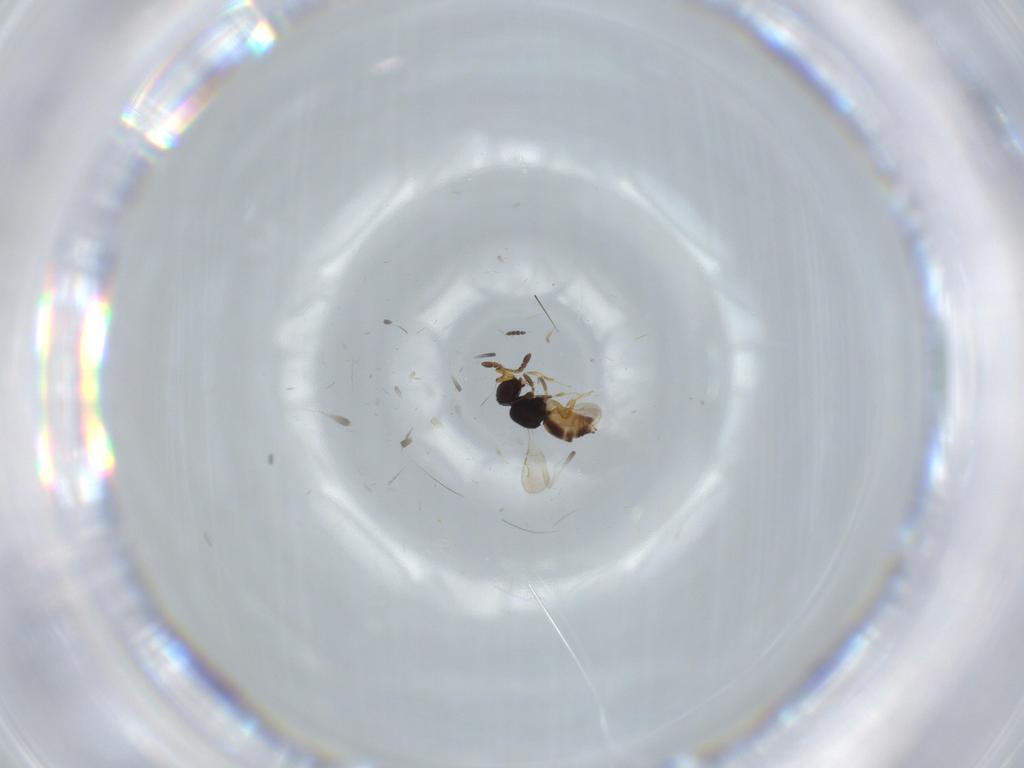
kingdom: Animalia
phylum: Arthropoda
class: Insecta
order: Hymenoptera
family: Scelionidae
